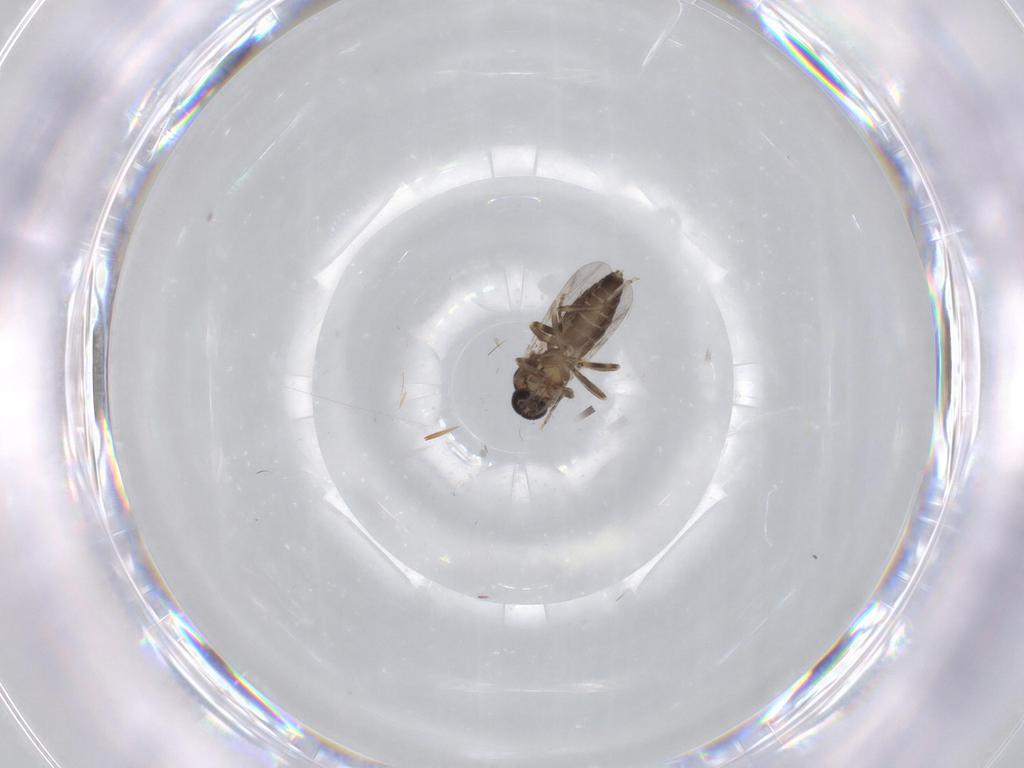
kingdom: Animalia
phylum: Arthropoda
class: Insecta
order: Diptera
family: Ceratopogonidae
